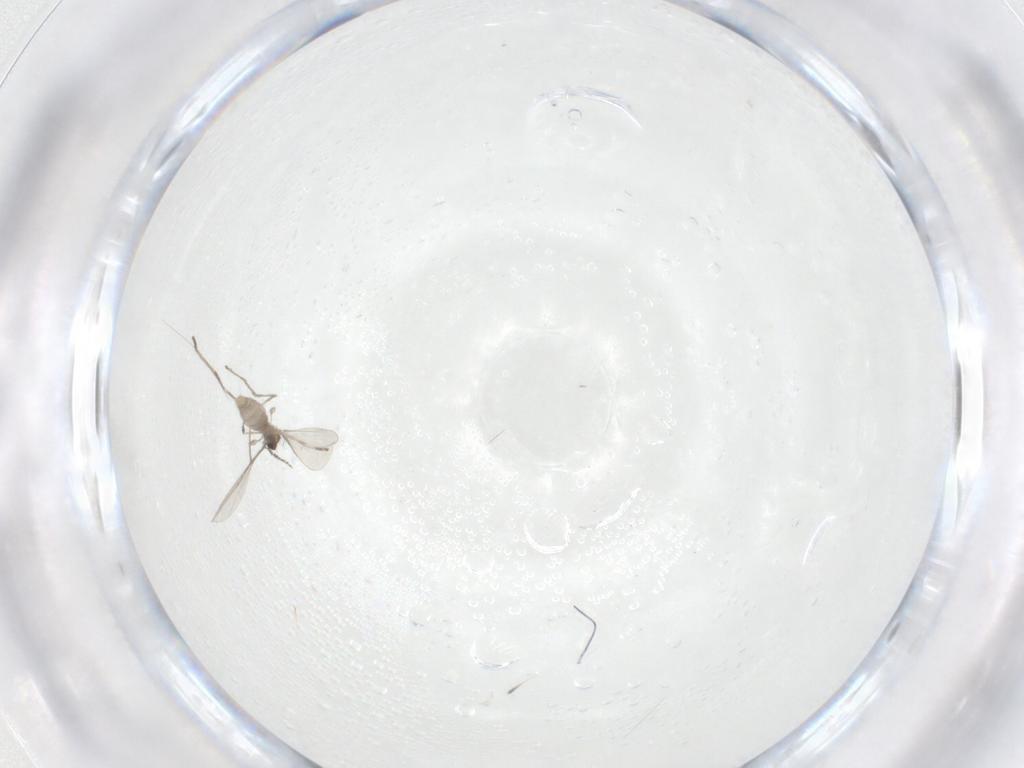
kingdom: Animalia
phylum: Arthropoda
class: Insecta
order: Diptera
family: Cecidomyiidae
